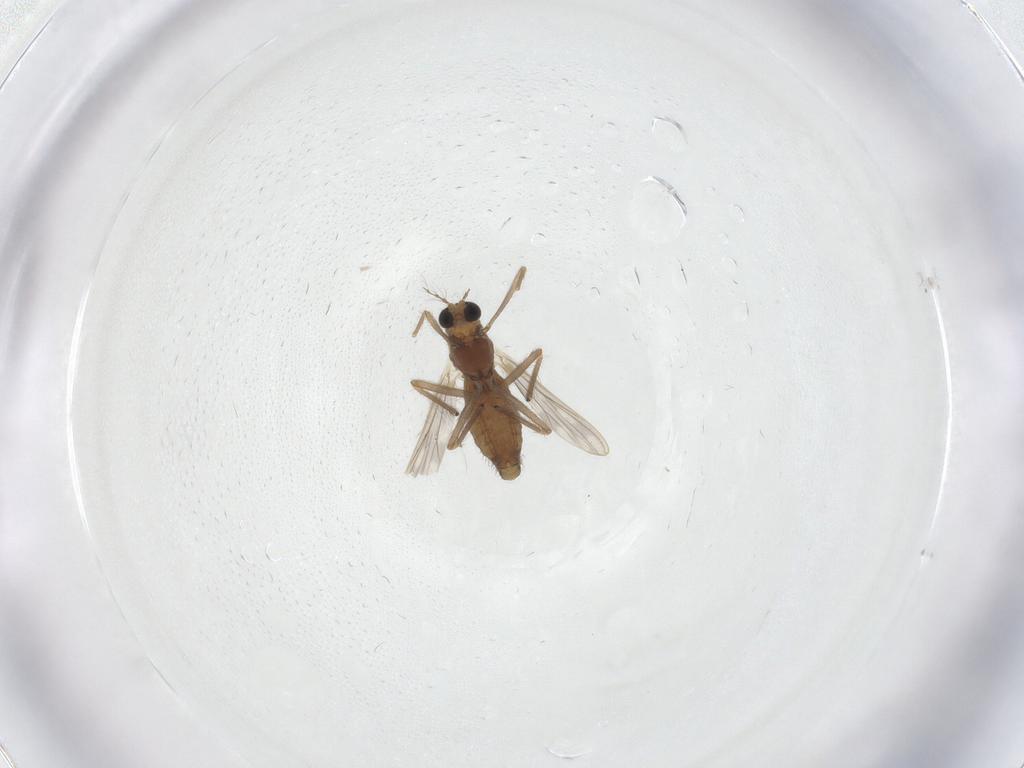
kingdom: Animalia
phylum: Arthropoda
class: Insecta
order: Diptera
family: Chironomidae
